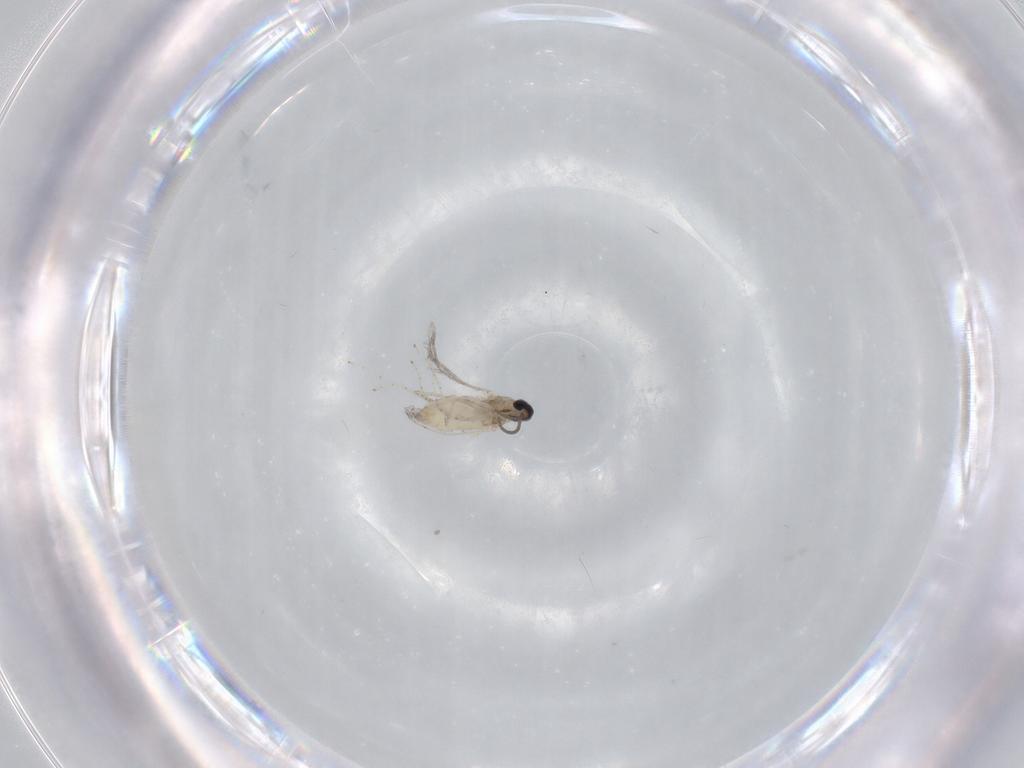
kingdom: Animalia
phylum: Arthropoda
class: Insecta
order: Diptera
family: Cecidomyiidae
